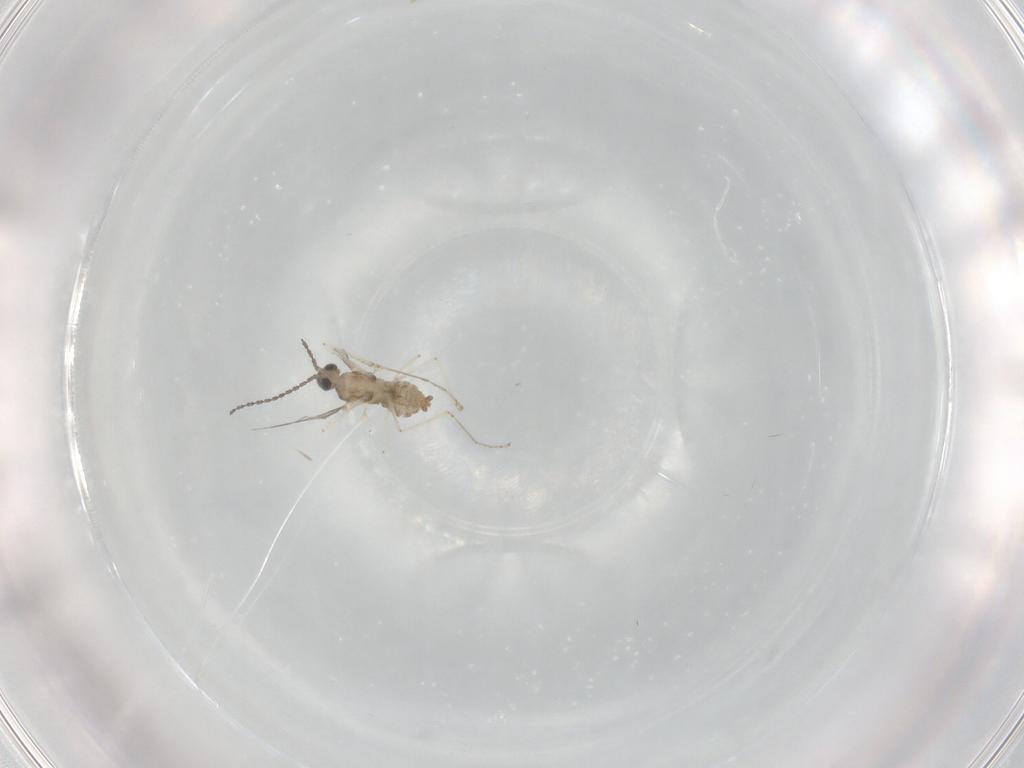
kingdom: Animalia
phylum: Arthropoda
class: Insecta
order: Diptera
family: Cecidomyiidae
